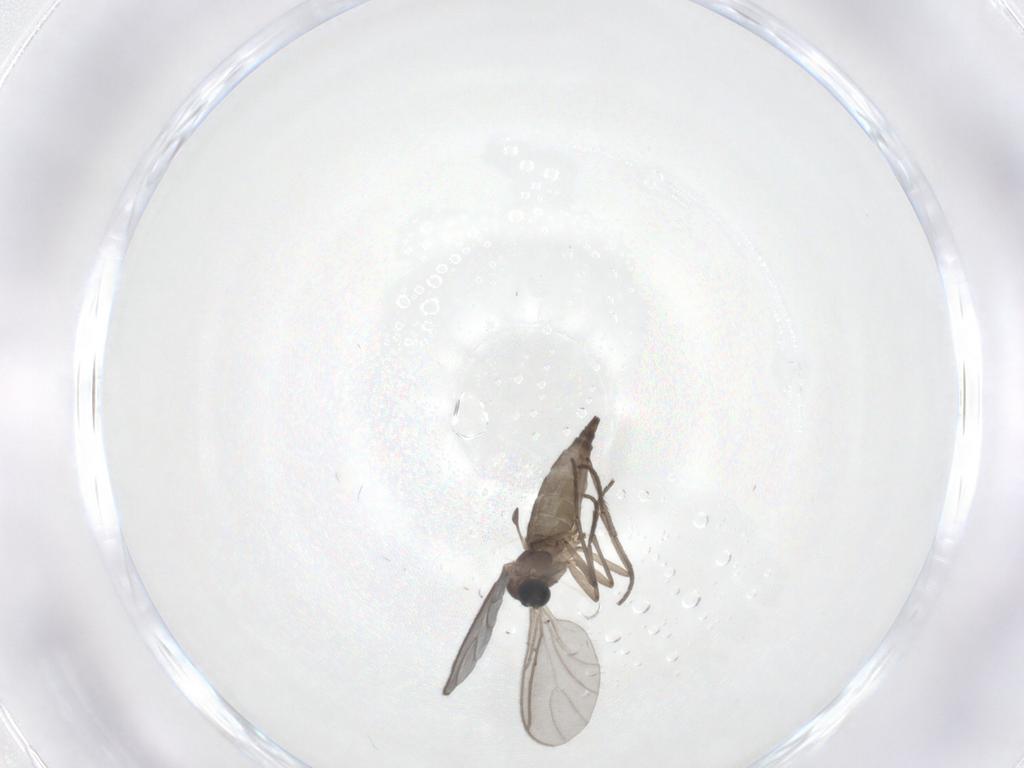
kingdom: Animalia
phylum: Arthropoda
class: Insecta
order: Diptera
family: Sciaridae
